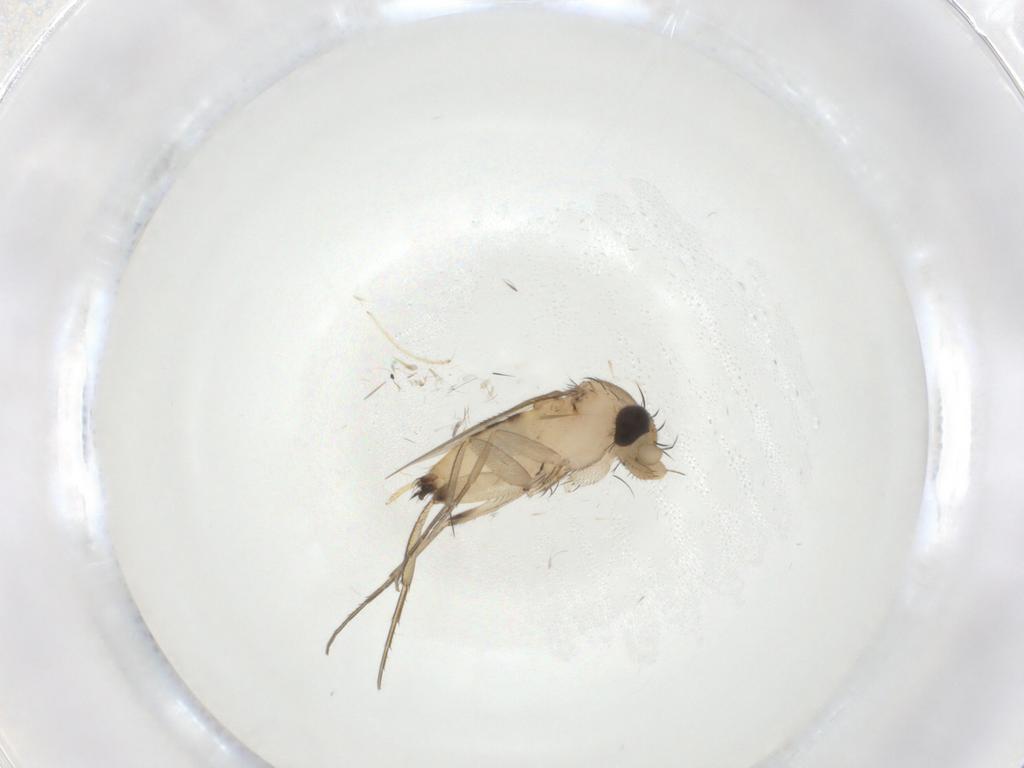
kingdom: Animalia
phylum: Arthropoda
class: Insecta
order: Diptera
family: Phoridae
